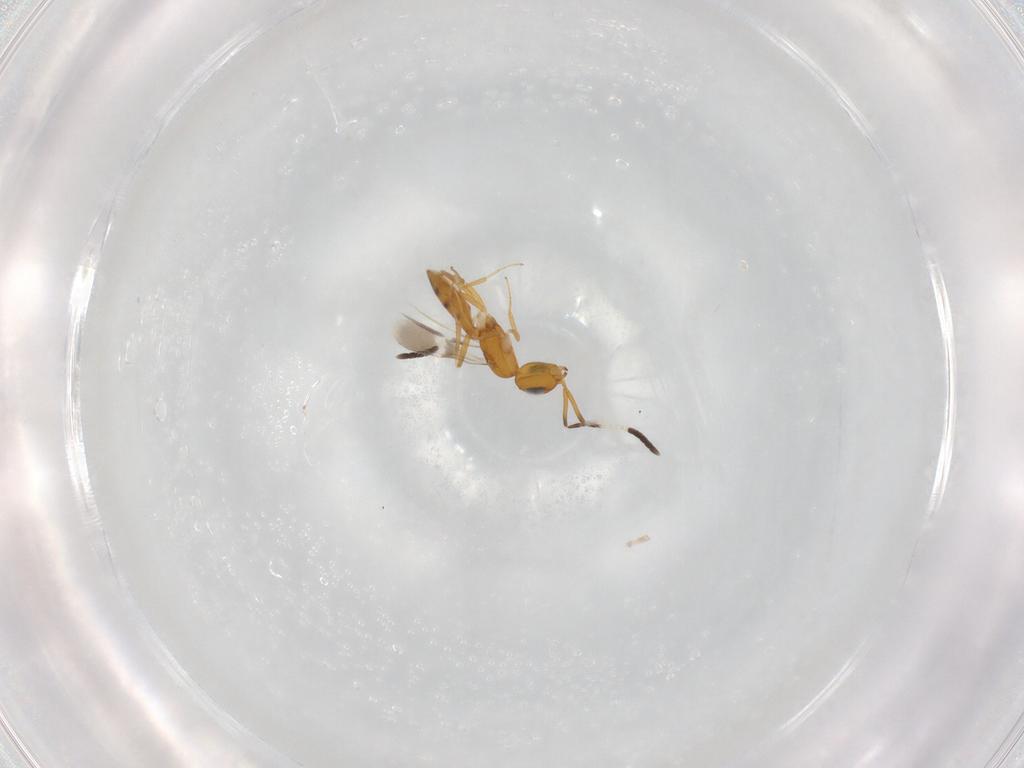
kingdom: Animalia
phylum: Arthropoda
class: Insecta
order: Hymenoptera
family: Scelionidae
